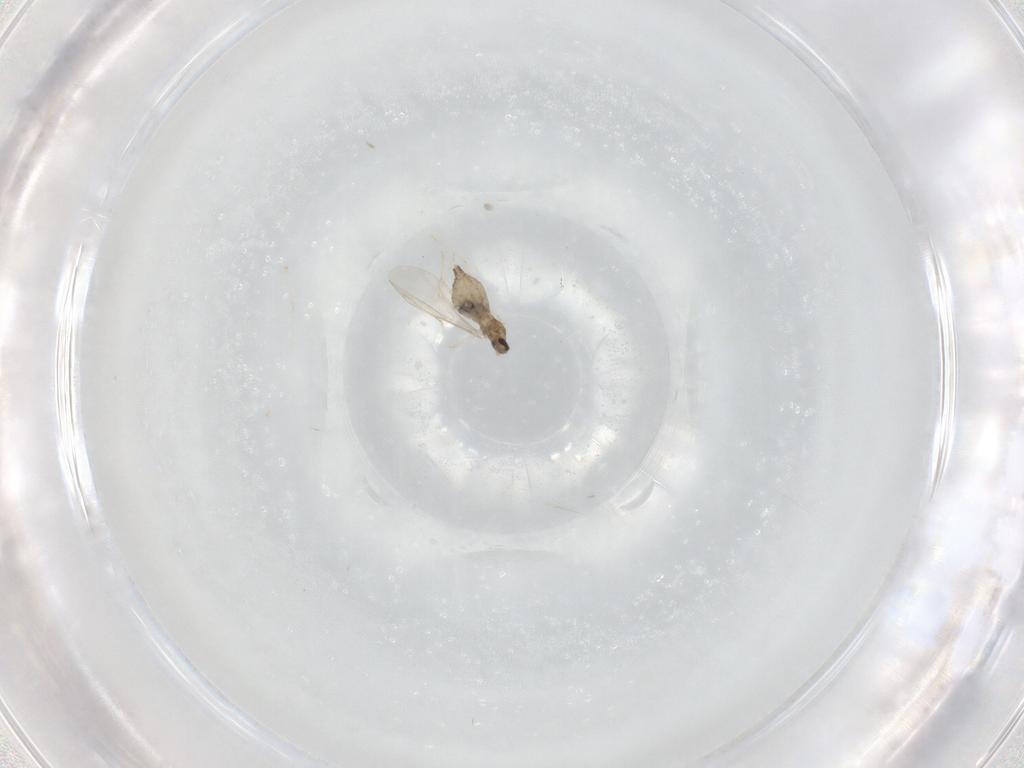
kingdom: Animalia
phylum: Arthropoda
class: Insecta
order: Diptera
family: Cecidomyiidae
